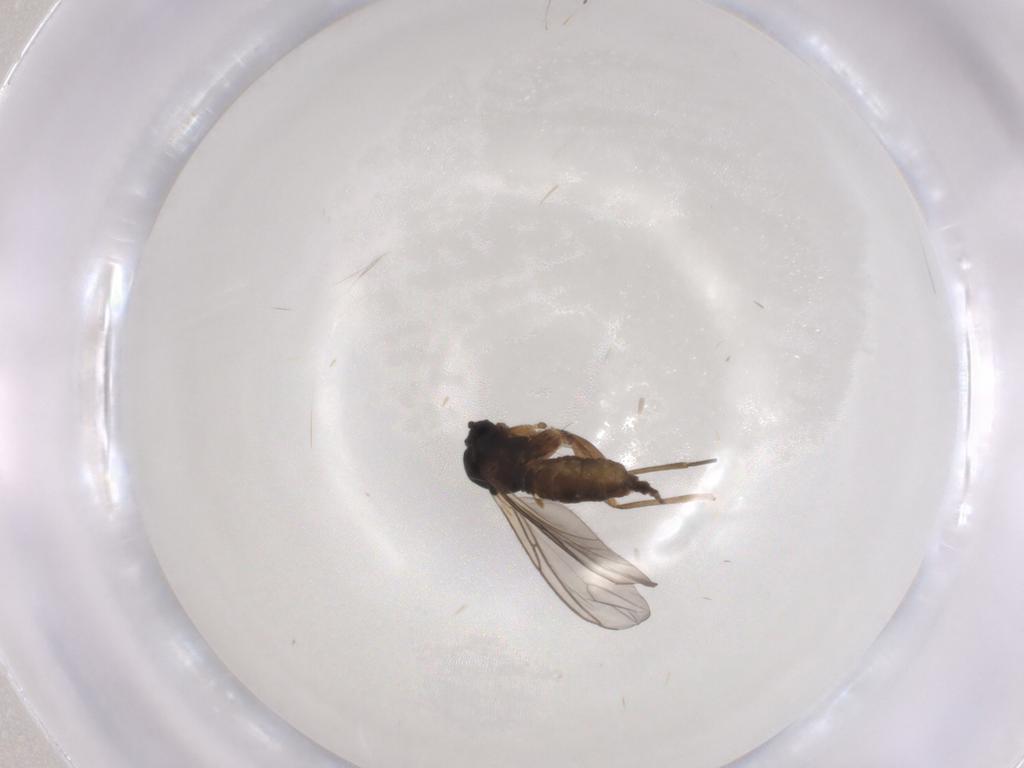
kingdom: Animalia
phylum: Arthropoda
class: Insecta
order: Diptera
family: Sciaridae
